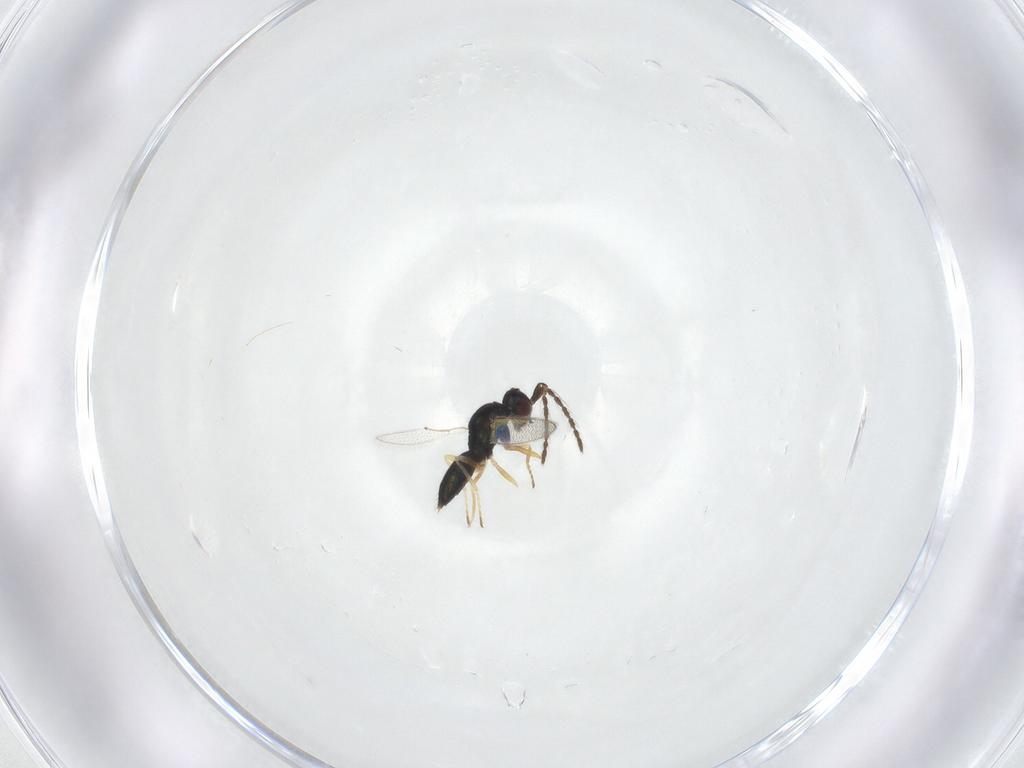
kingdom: Animalia
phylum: Arthropoda
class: Insecta
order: Hymenoptera
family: Eulophidae
